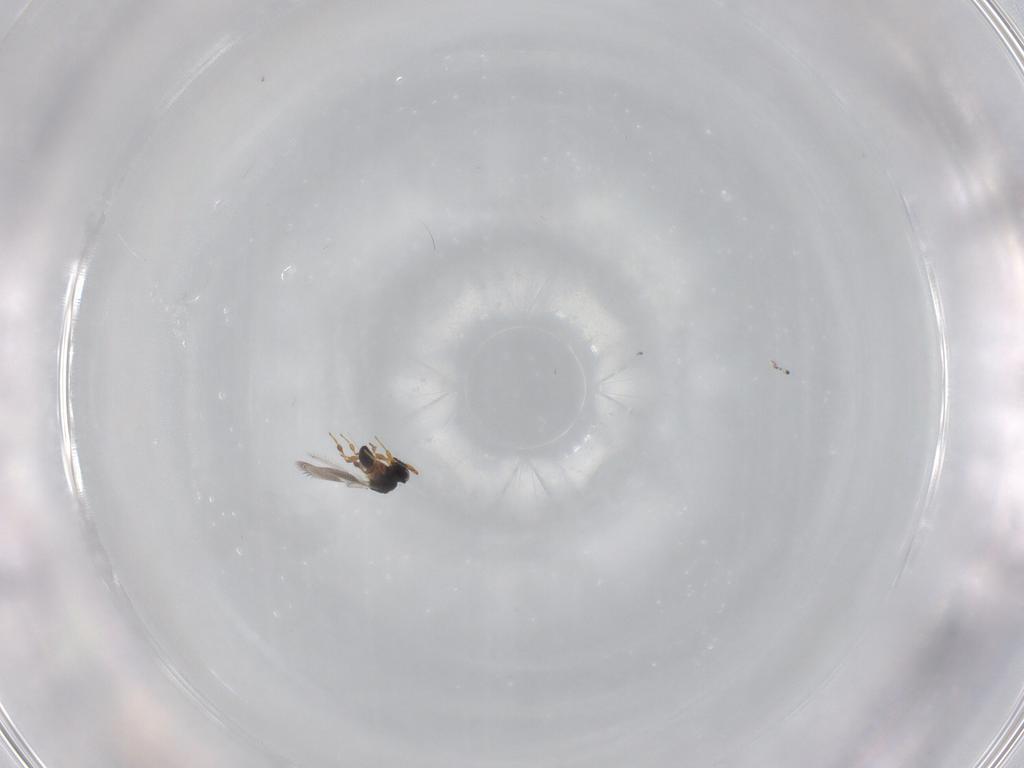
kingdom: Animalia
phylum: Arthropoda
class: Insecta
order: Hymenoptera
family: Platygastridae
